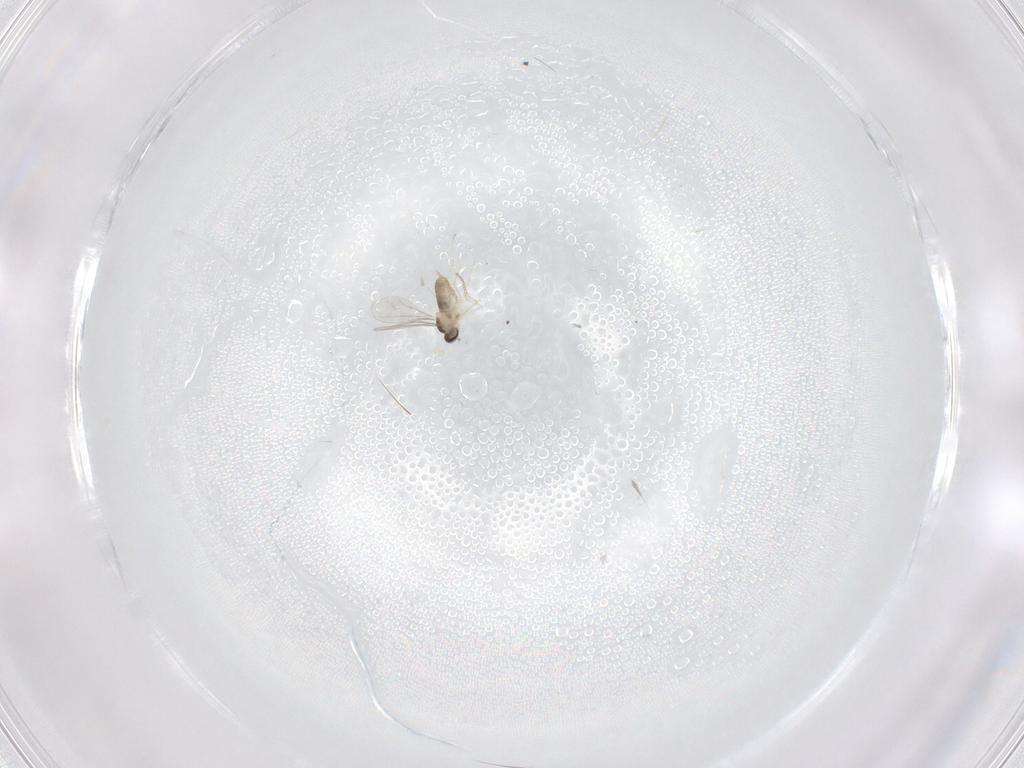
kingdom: Animalia
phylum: Arthropoda
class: Insecta
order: Diptera
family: Cecidomyiidae
